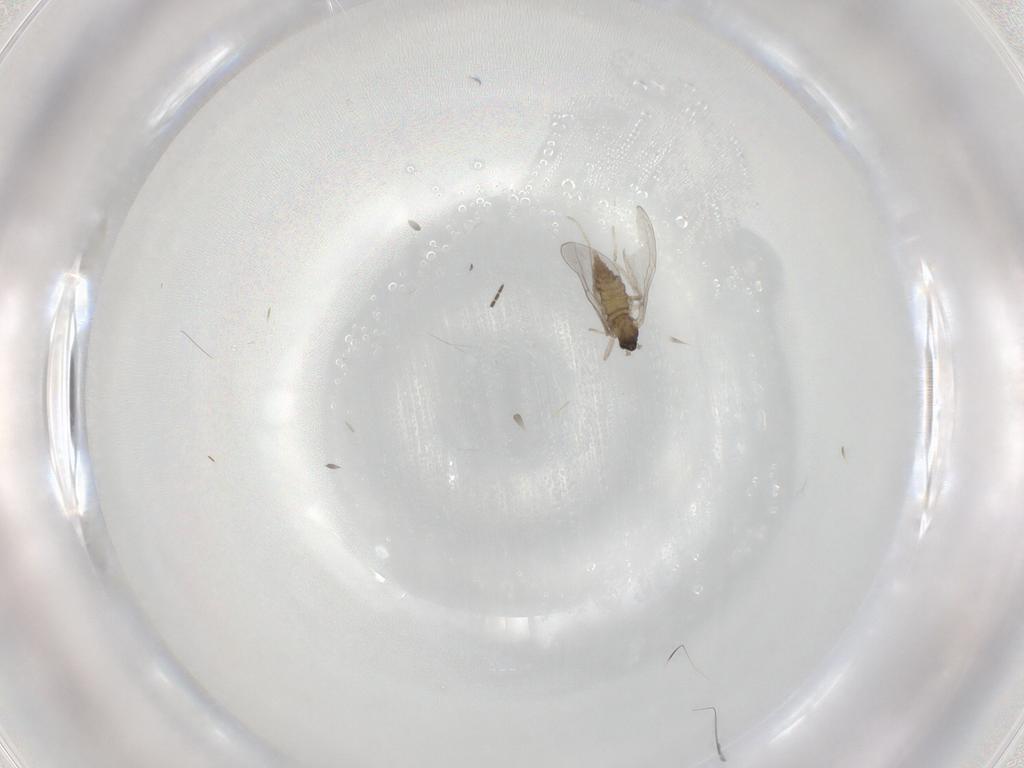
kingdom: Animalia
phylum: Arthropoda
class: Insecta
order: Diptera
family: Cecidomyiidae
